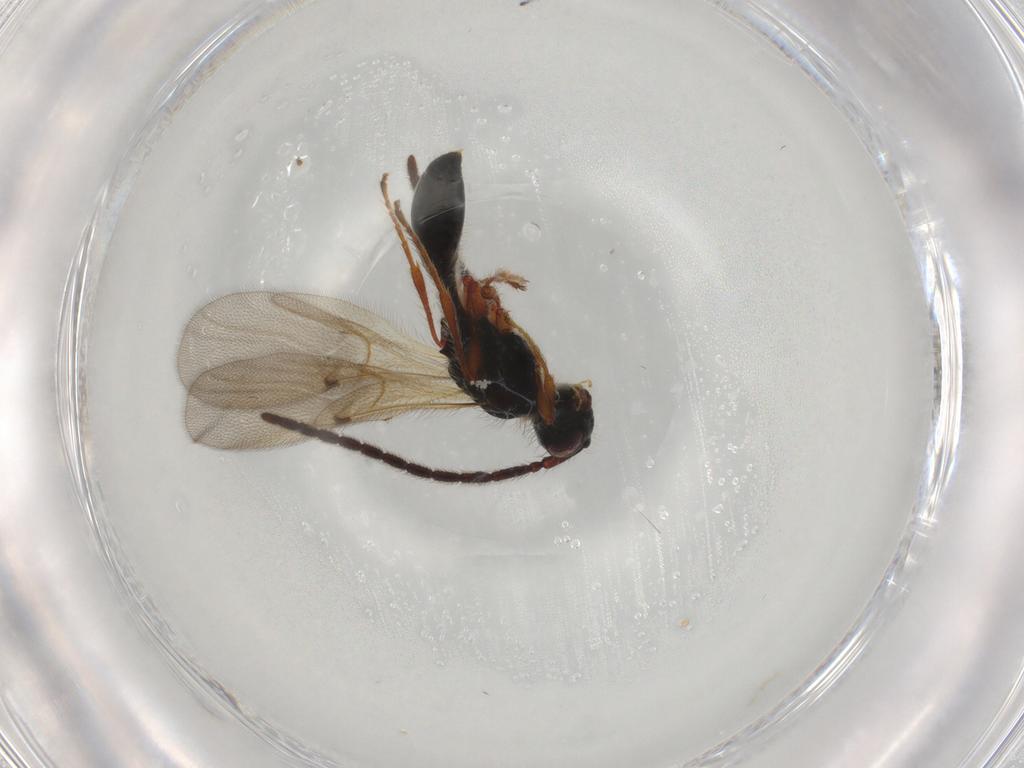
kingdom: Animalia
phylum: Arthropoda
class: Insecta
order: Hymenoptera
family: Diapriidae
